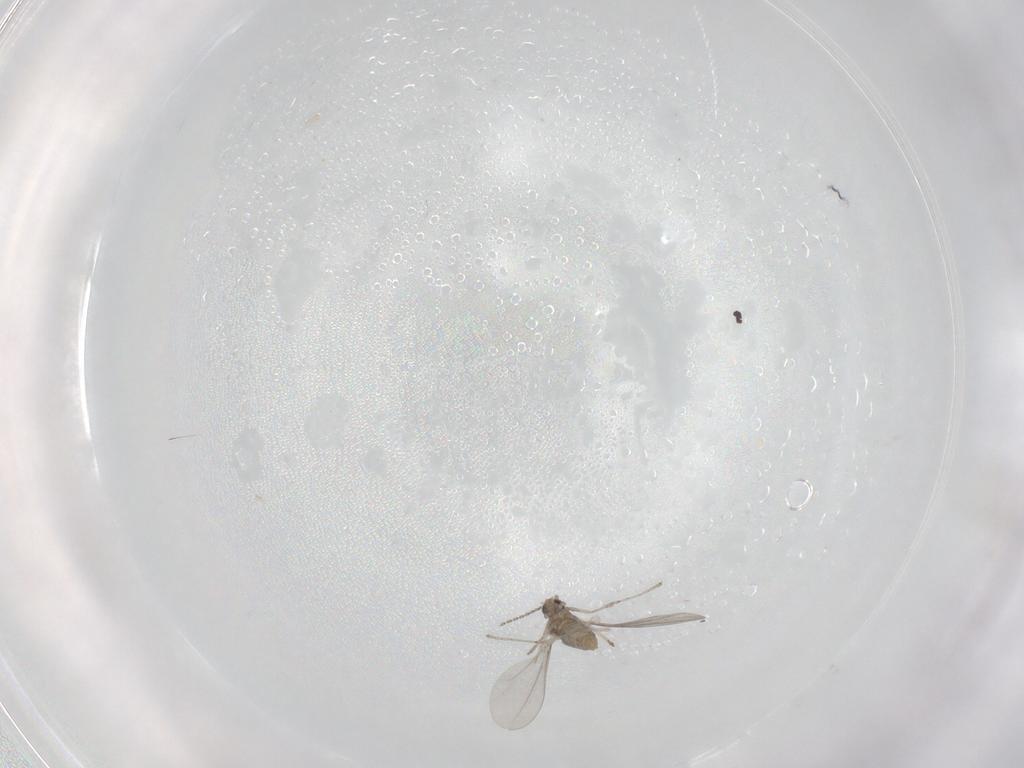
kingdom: Animalia
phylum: Arthropoda
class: Insecta
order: Diptera
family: Cecidomyiidae
